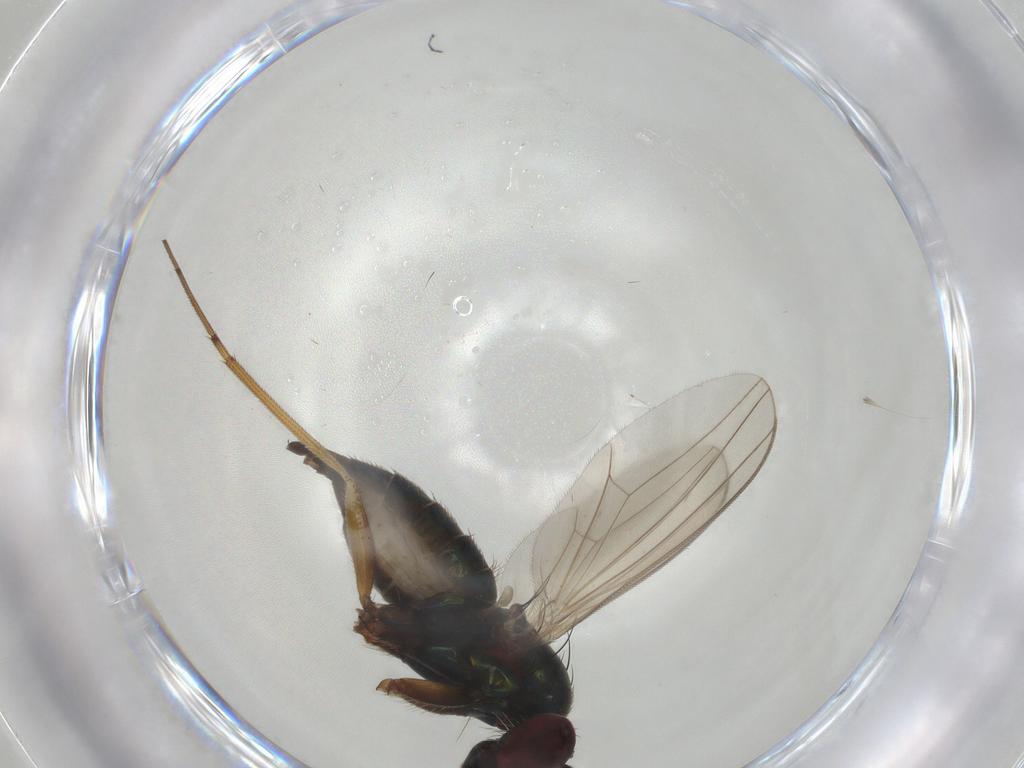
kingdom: Animalia
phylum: Arthropoda
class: Insecta
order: Diptera
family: Dolichopodidae
